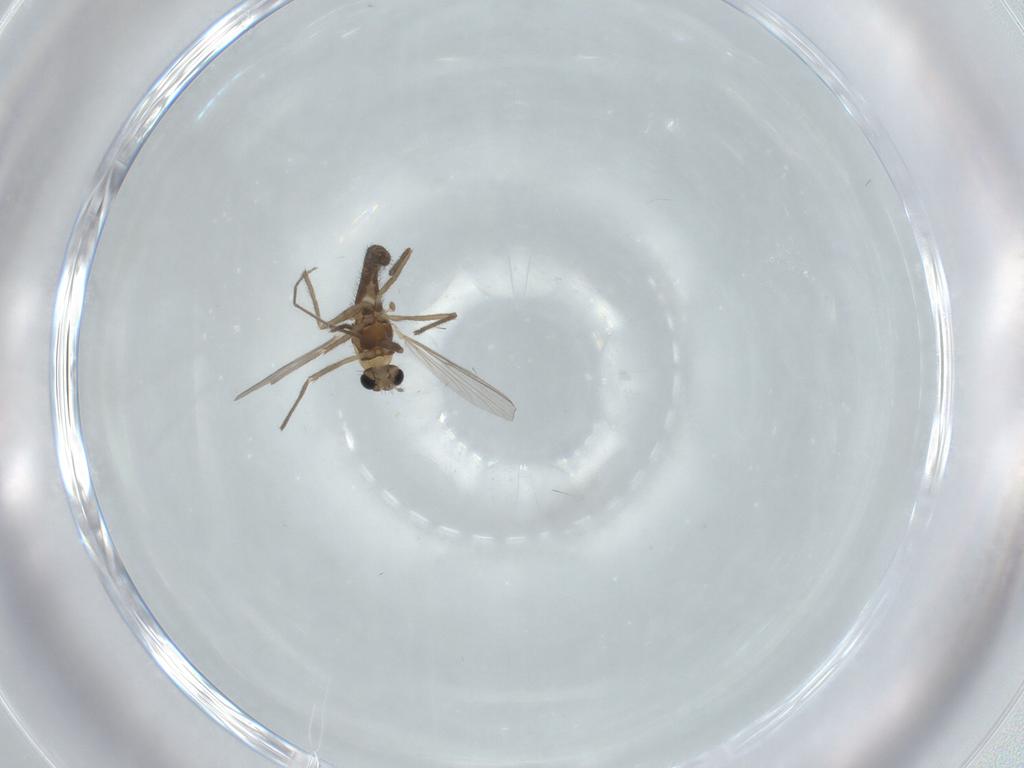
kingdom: Animalia
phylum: Arthropoda
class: Insecta
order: Diptera
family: Chironomidae
